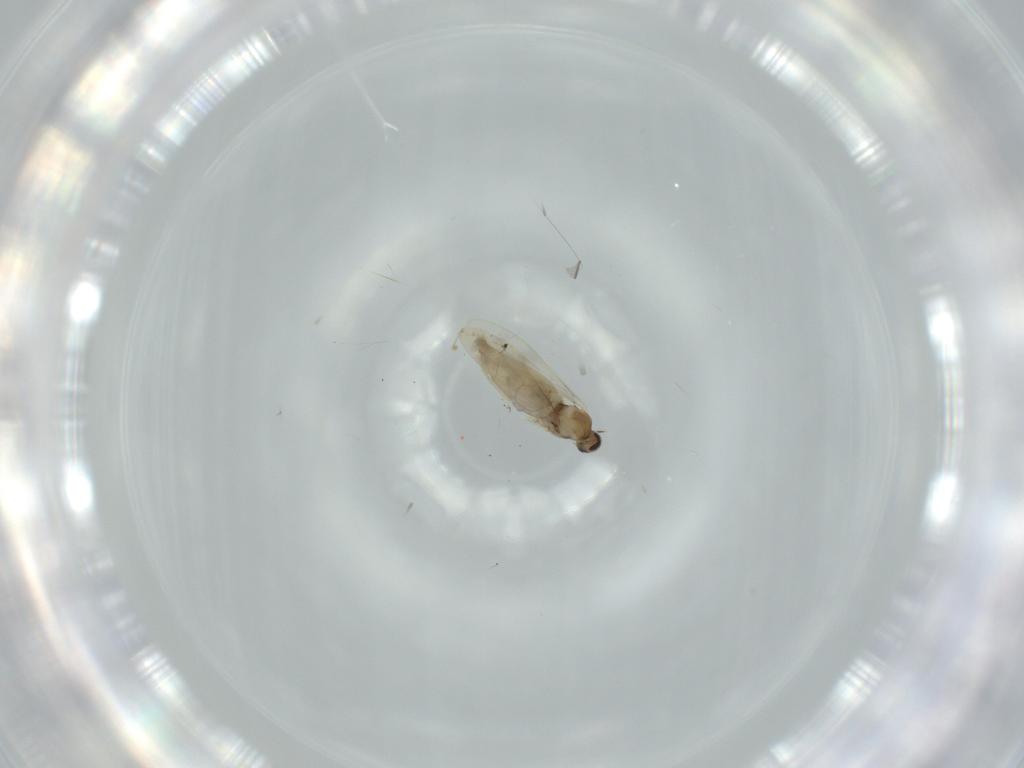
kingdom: Animalia
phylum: Arthropoda
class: Insecta
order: Diptera
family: Cecidomyiidae
